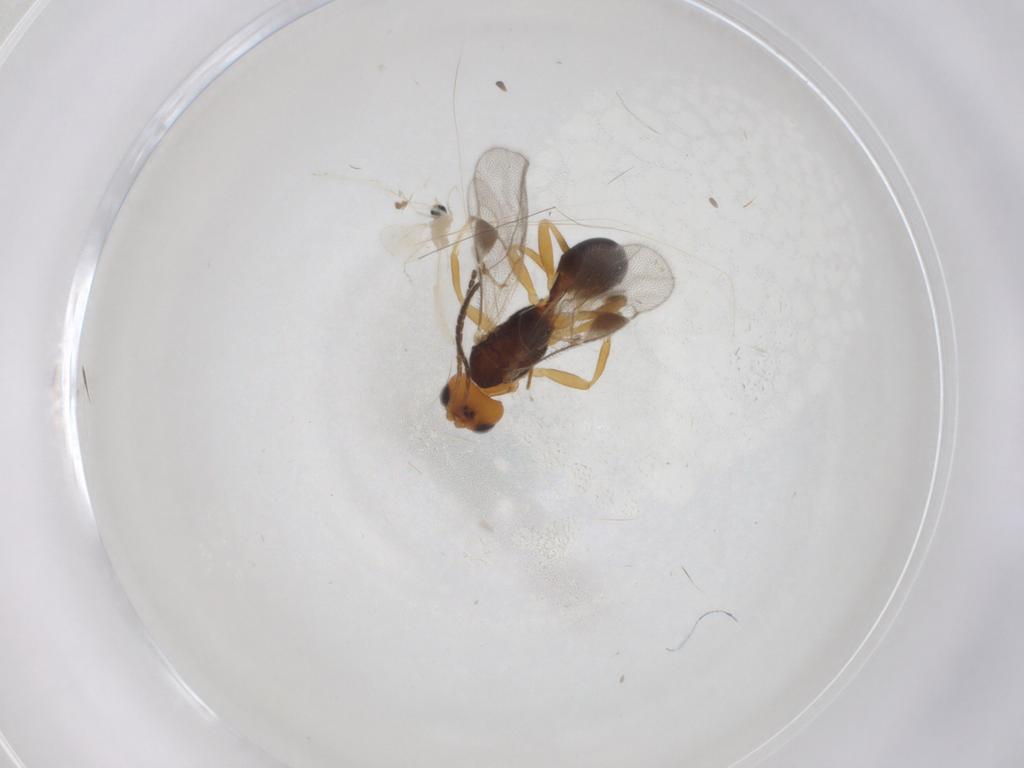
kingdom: Animalia
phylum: Arthropoda
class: Insecta
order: Hymenoptera
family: Braconidae
